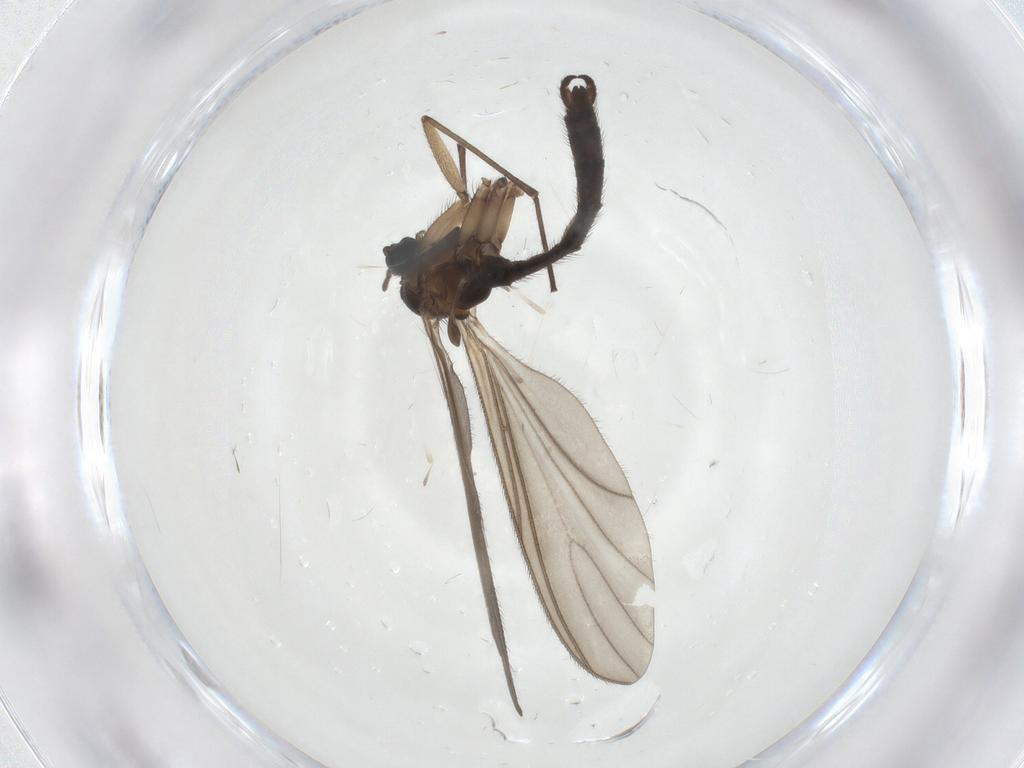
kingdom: Animalia
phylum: Arthropoda
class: Insecta
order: Diptera
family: Sciaridae
